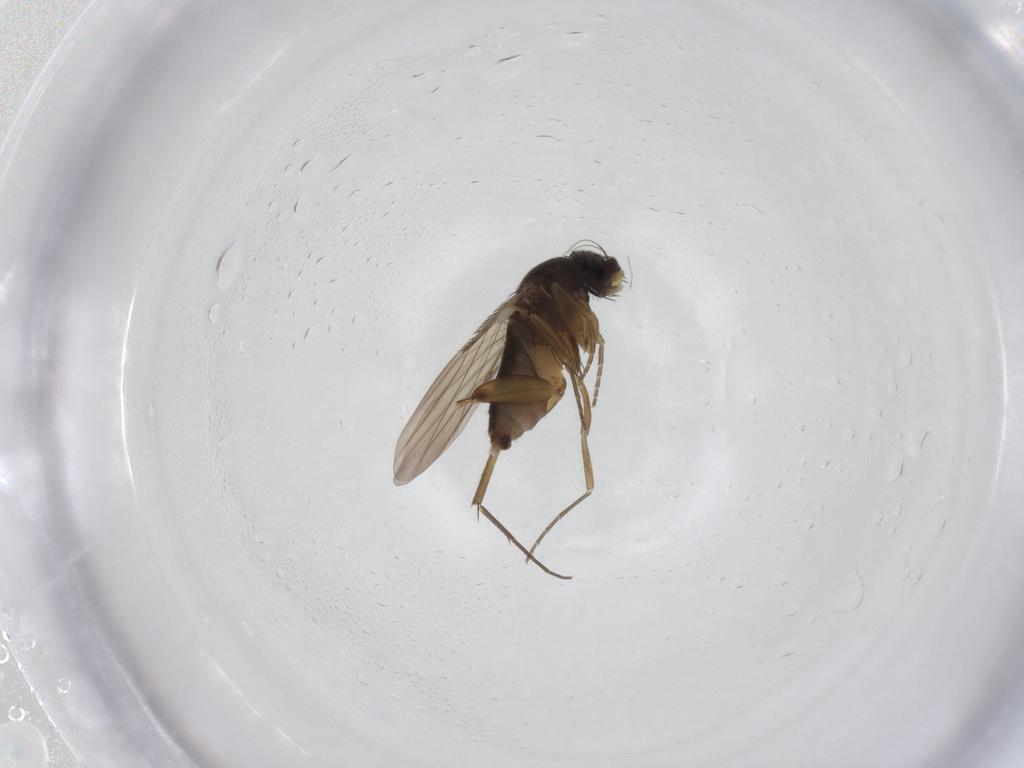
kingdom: Animalia
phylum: Arthropoda
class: Insecta
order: Diptera
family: Phoridae
